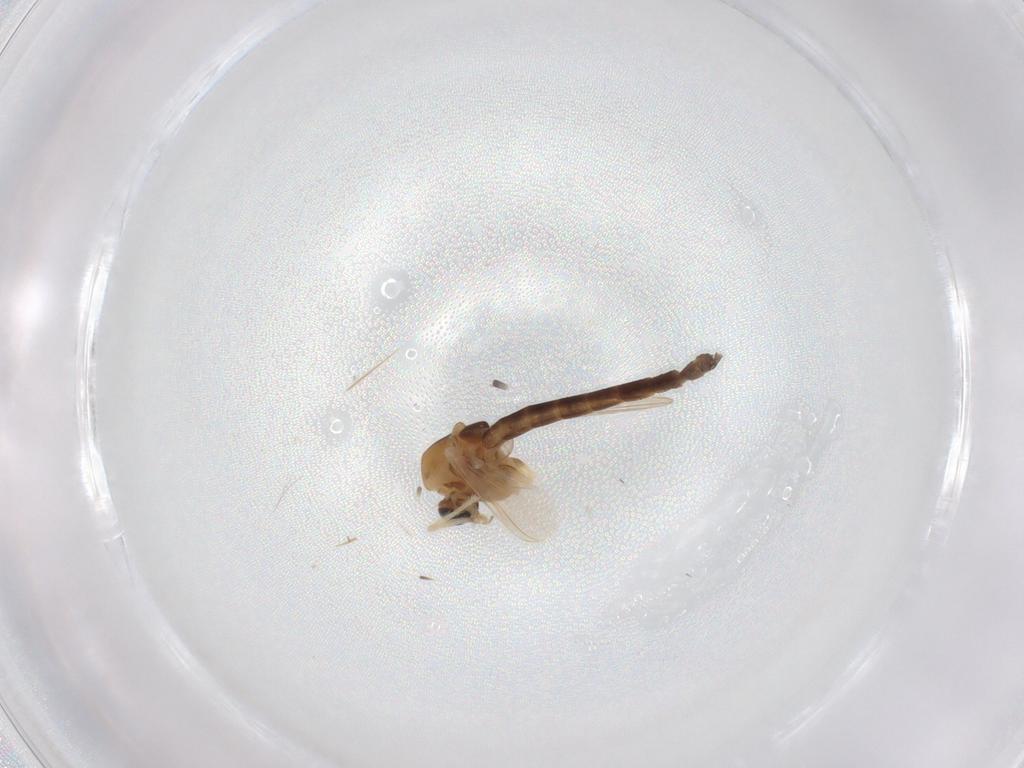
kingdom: Animalia
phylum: Arthropoda
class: Insecta
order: Diptera
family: Chironomidae
